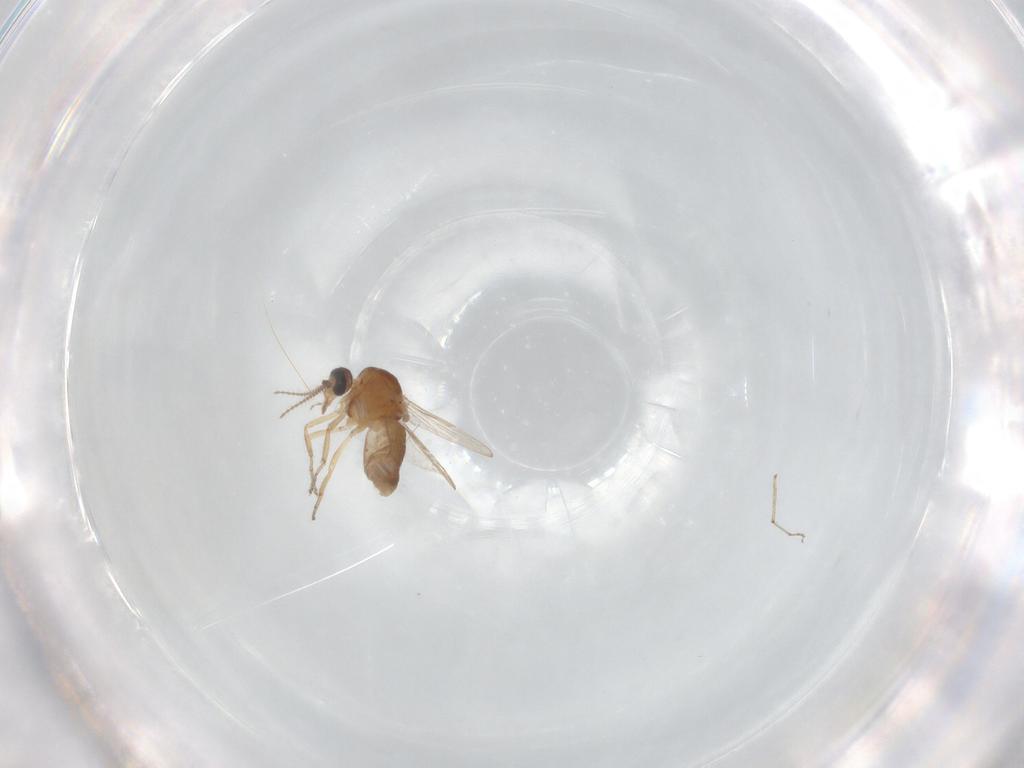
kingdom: Animalia
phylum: Arthropoda
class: Insecta
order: Diptera
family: Ceratopogonidae
